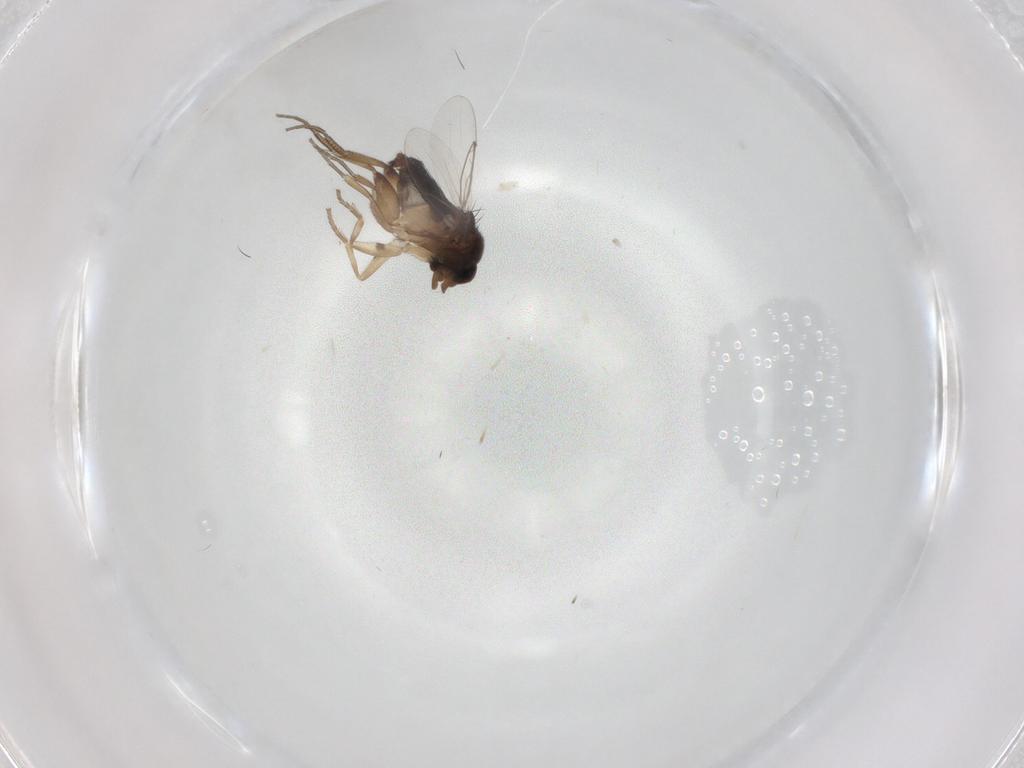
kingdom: Animalia
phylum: Arthropoda
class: Insecta
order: Diptera
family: Phoridae
